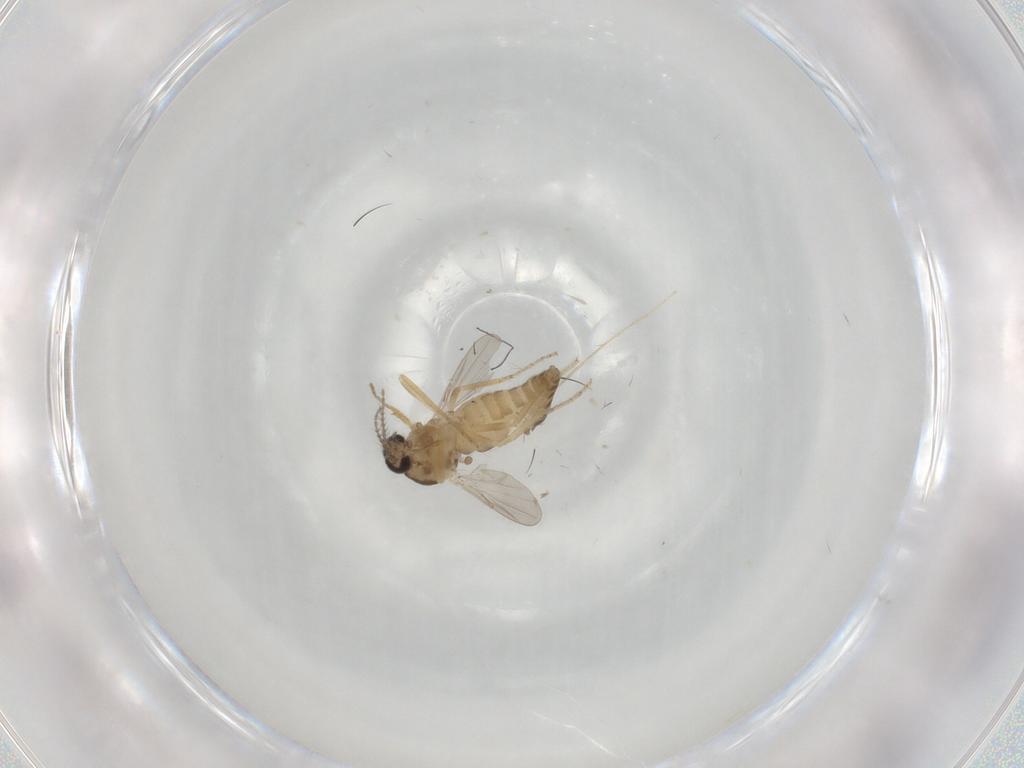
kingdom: Animalia
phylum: Arthropoda
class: Insecta
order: Diptera
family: Ceratopogonidae
